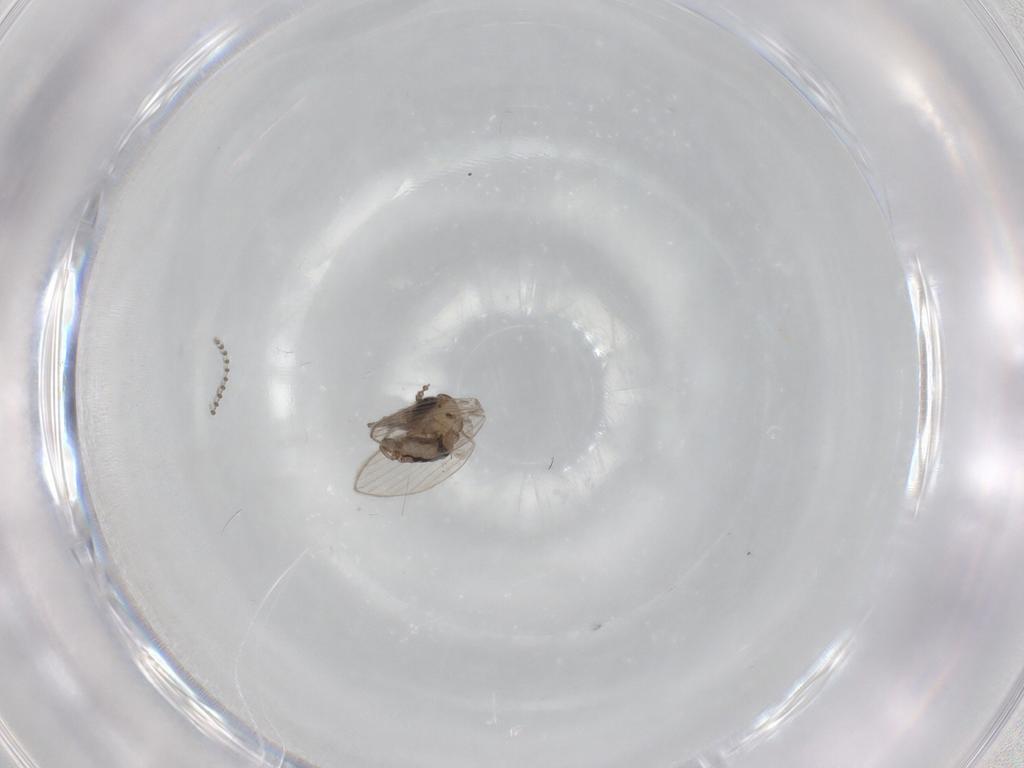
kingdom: Animalia
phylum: Arthropoda
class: Insecta
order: Diptera
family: Psychodidae
